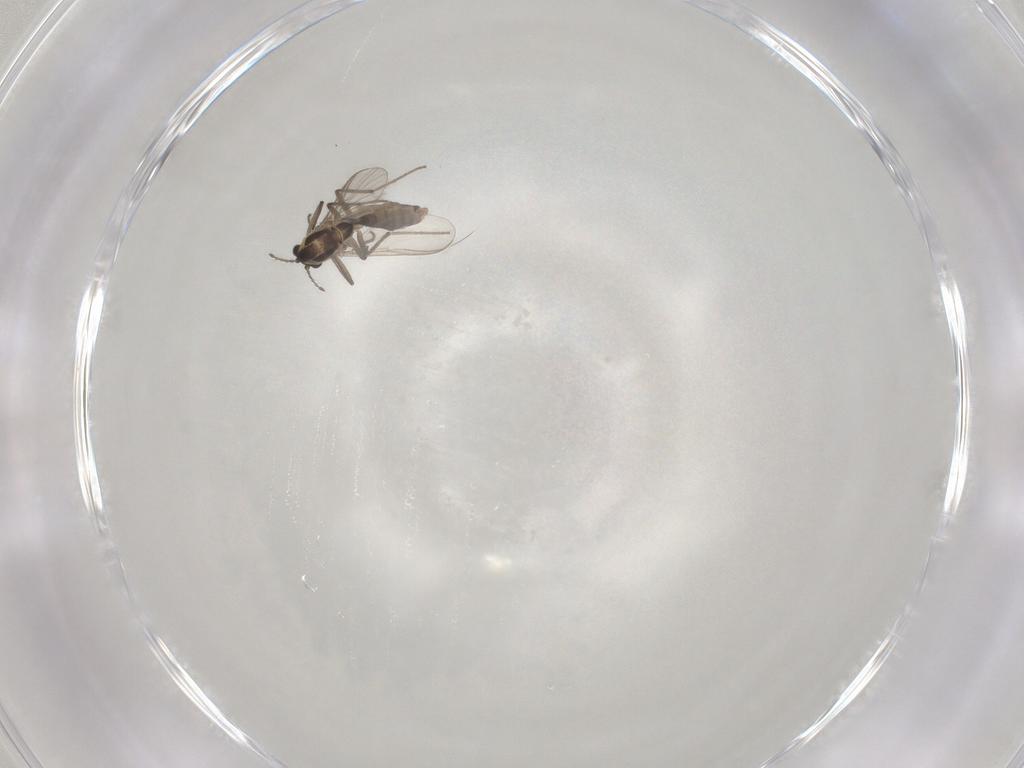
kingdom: Animalia
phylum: Arthropoda
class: Insecta
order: Diptera
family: Chironomidae
